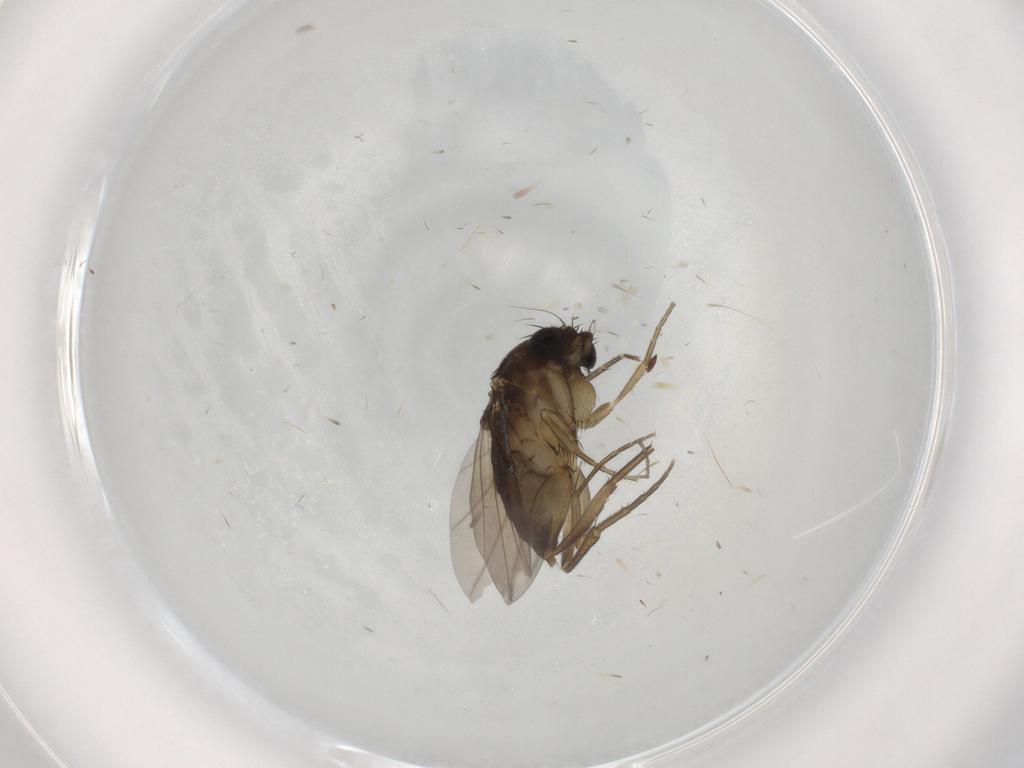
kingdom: Animalia
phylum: Arthropoda
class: Insecta
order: Diptera
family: Phoridae
